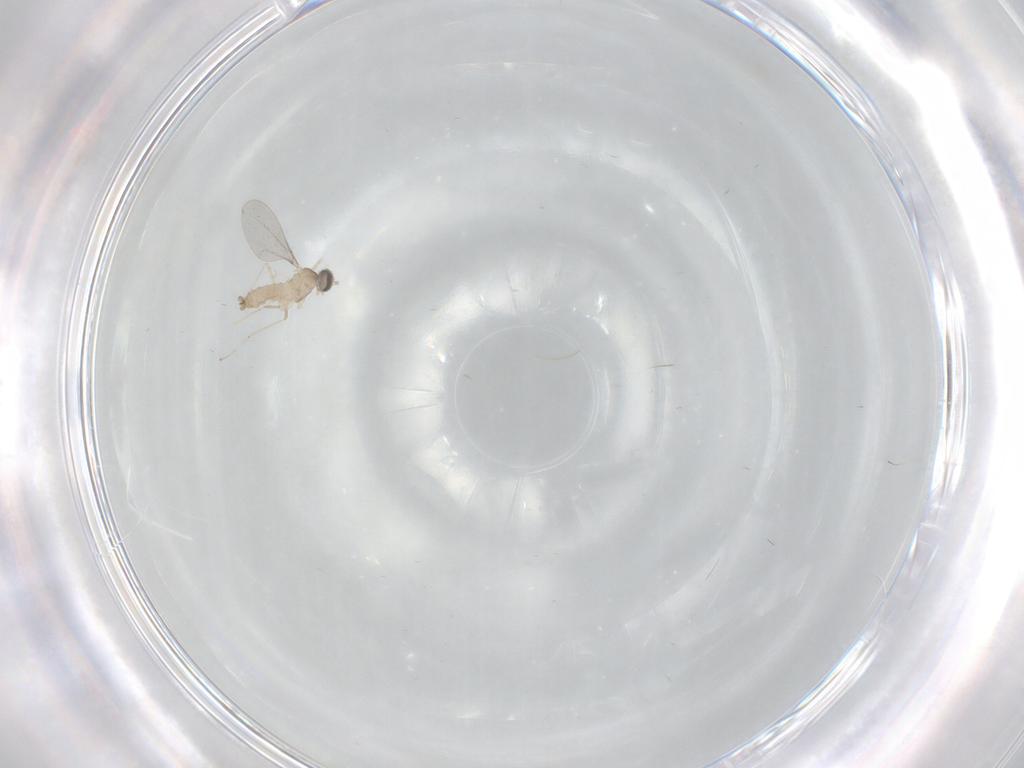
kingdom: Animalia
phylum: Arthropoda
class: Insecta
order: Diptera
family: Cecidomyiidae
